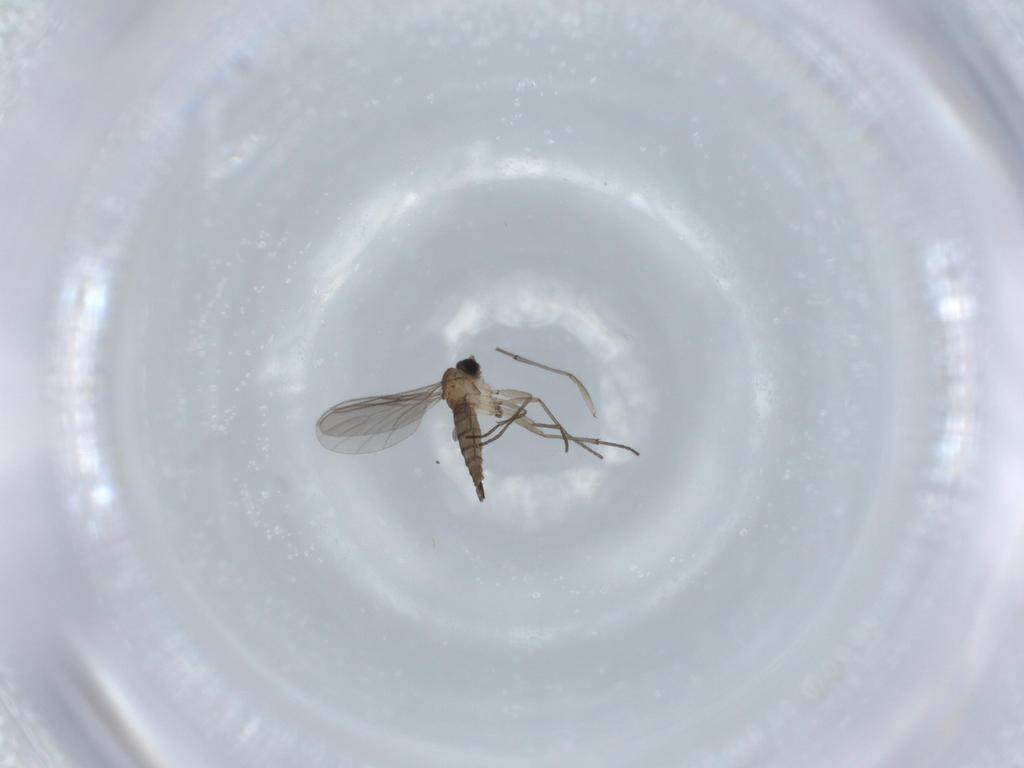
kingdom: Animalia
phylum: Arthropoda
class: Insecta
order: Diptera
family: Sciaridae
